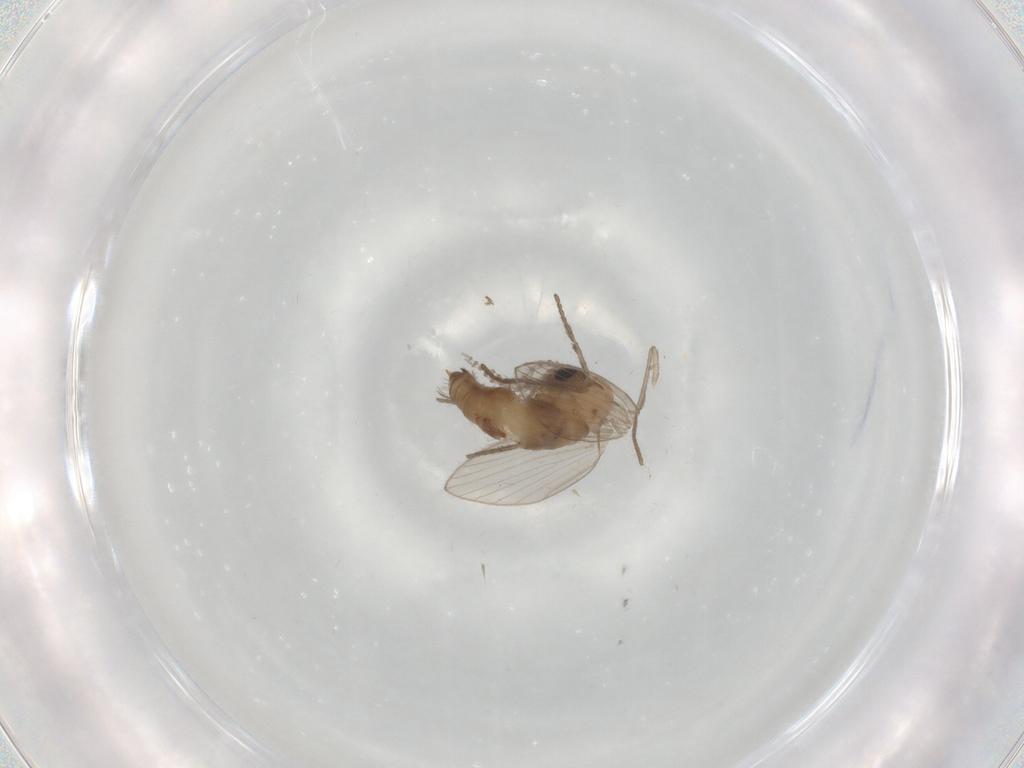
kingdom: Animalia
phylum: Arthropoda
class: Insecta
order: Diptera
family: Psychodidae
